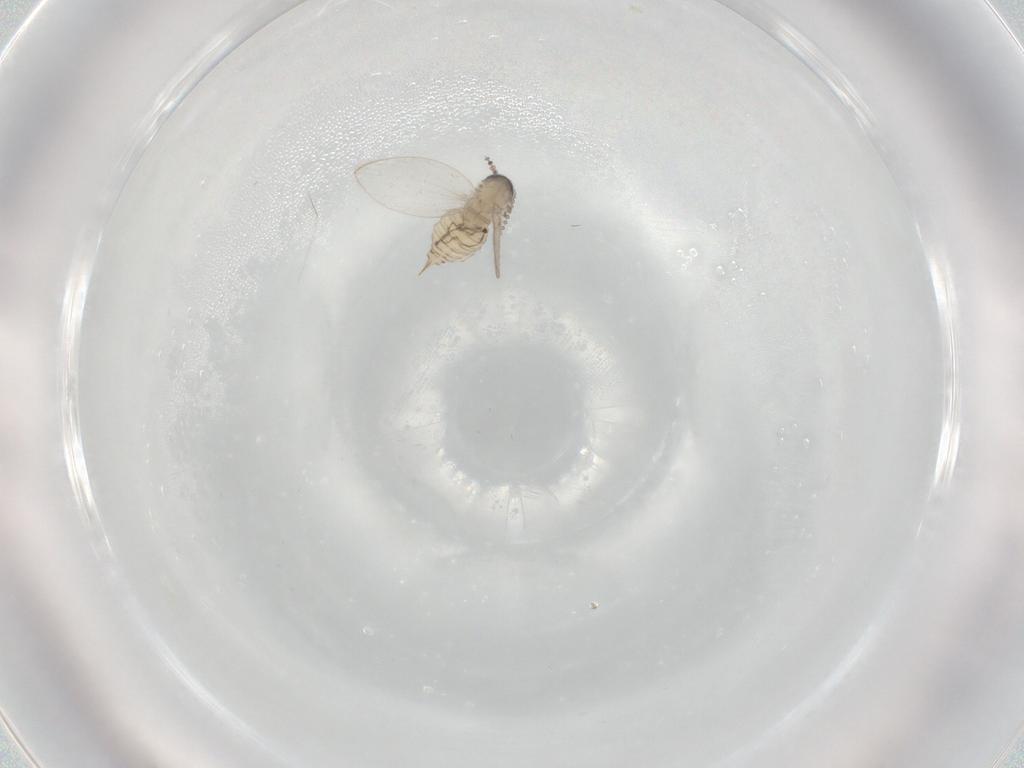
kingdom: Animalia
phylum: Arthropoda
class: Insecta
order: Diptera
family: Psychodidae
